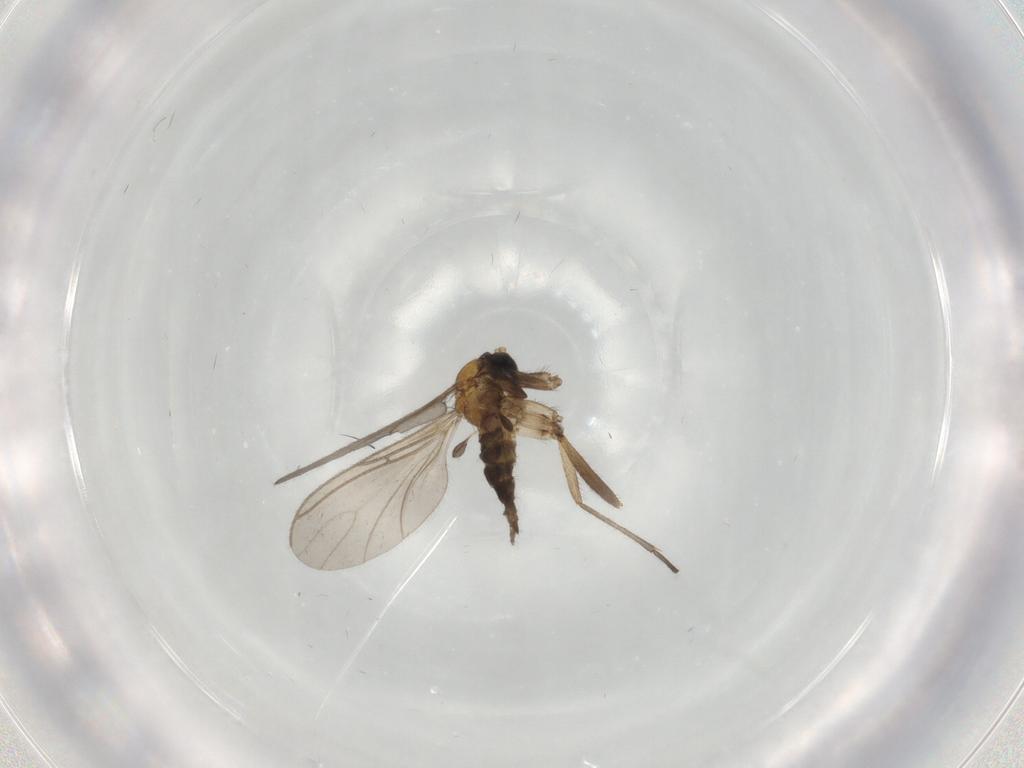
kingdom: Animalia
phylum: Arthropoda
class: Insecta
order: Diptera
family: Sciaridae
